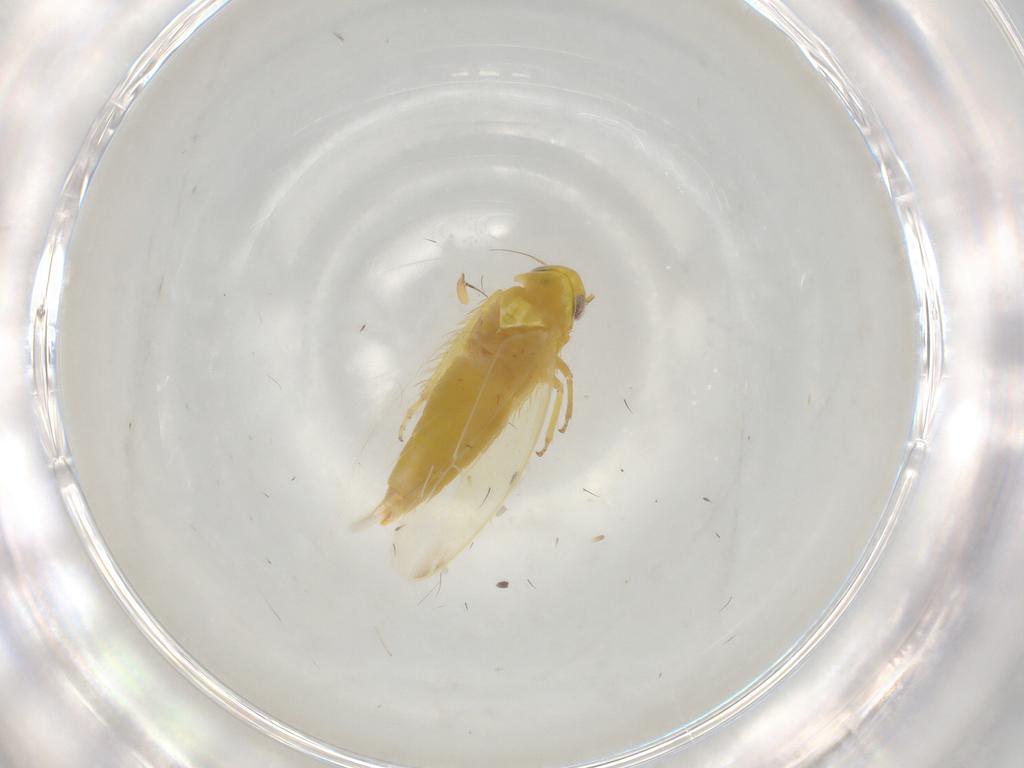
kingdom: Animalia
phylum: Arthropoda
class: Insecta
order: Hemiptera
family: Cicadellidae
